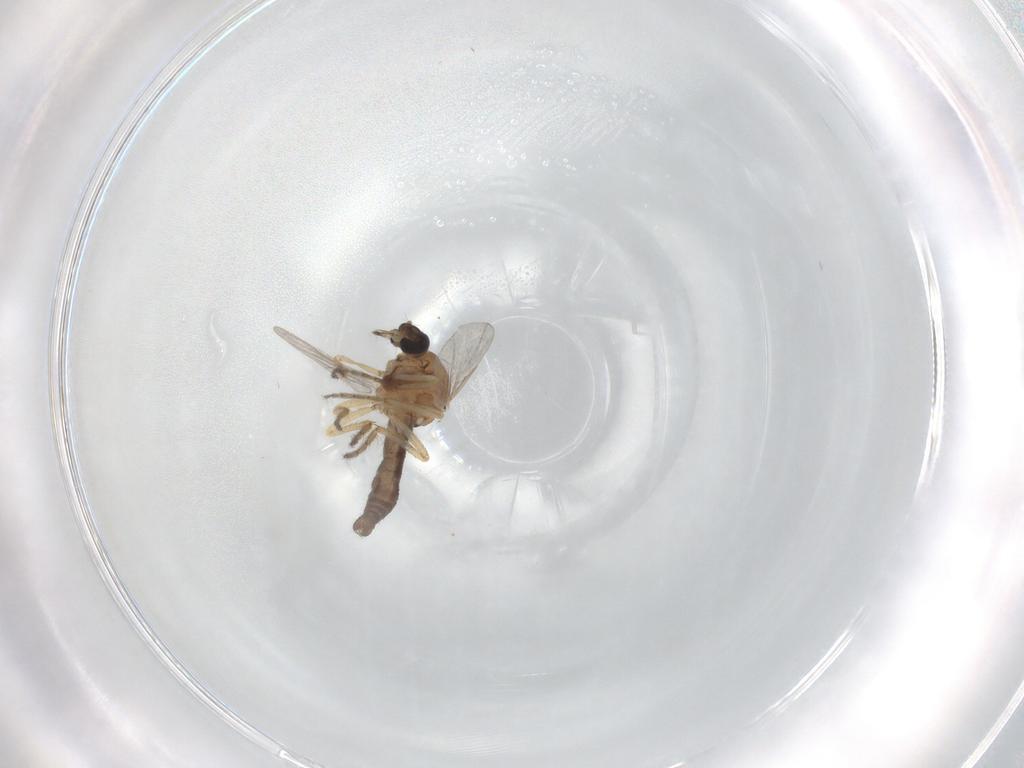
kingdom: Animalia
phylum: Arthropoda
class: Insecta
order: Diptera
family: Ceratopogonidae
